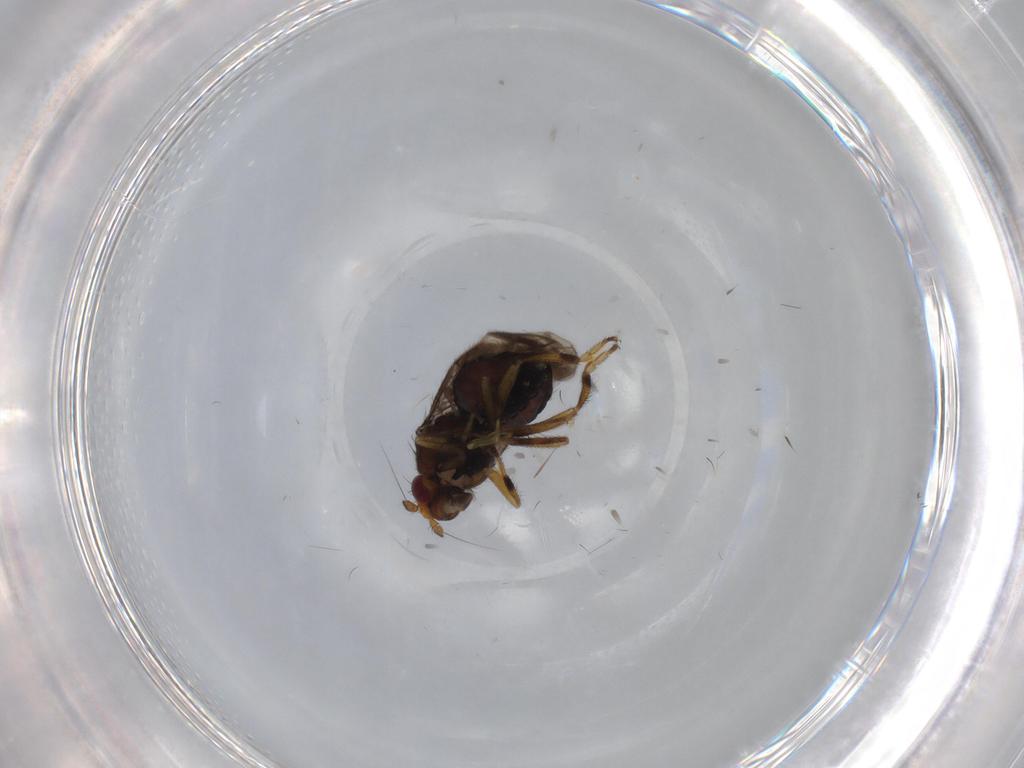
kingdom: Animalia
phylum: Arthropoda
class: Insecta
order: Diptera
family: Sphaeroceridae
